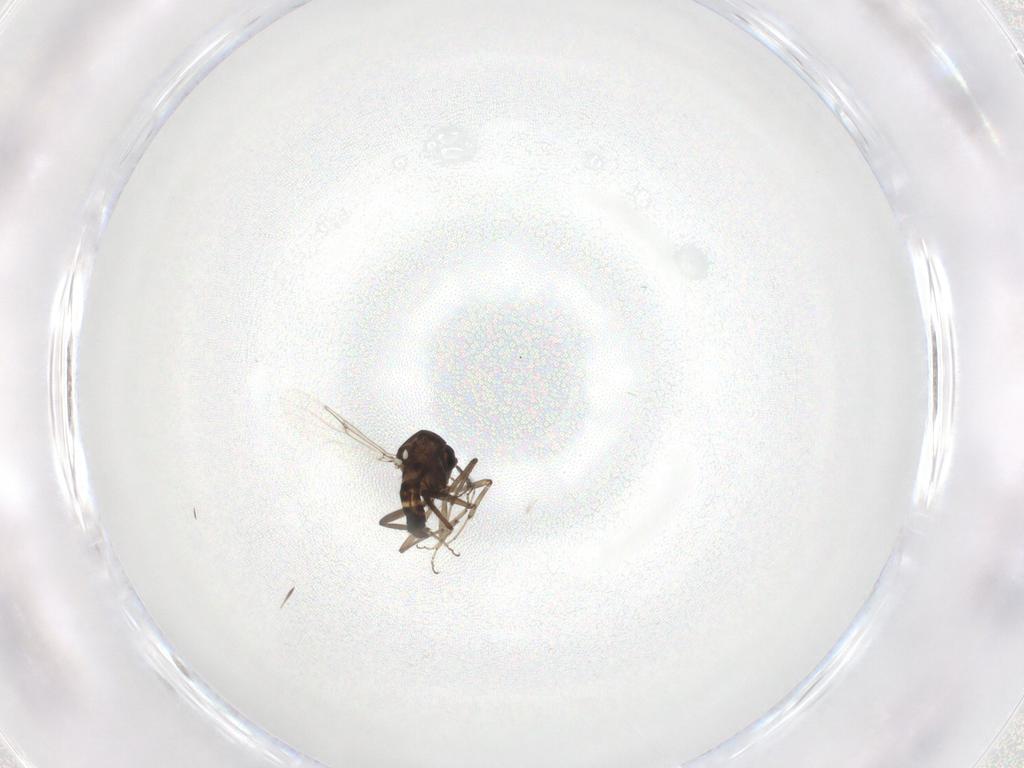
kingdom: Animalia
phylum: Arthropoda
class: Insecta
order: Diptera
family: Ceratopogonidae
